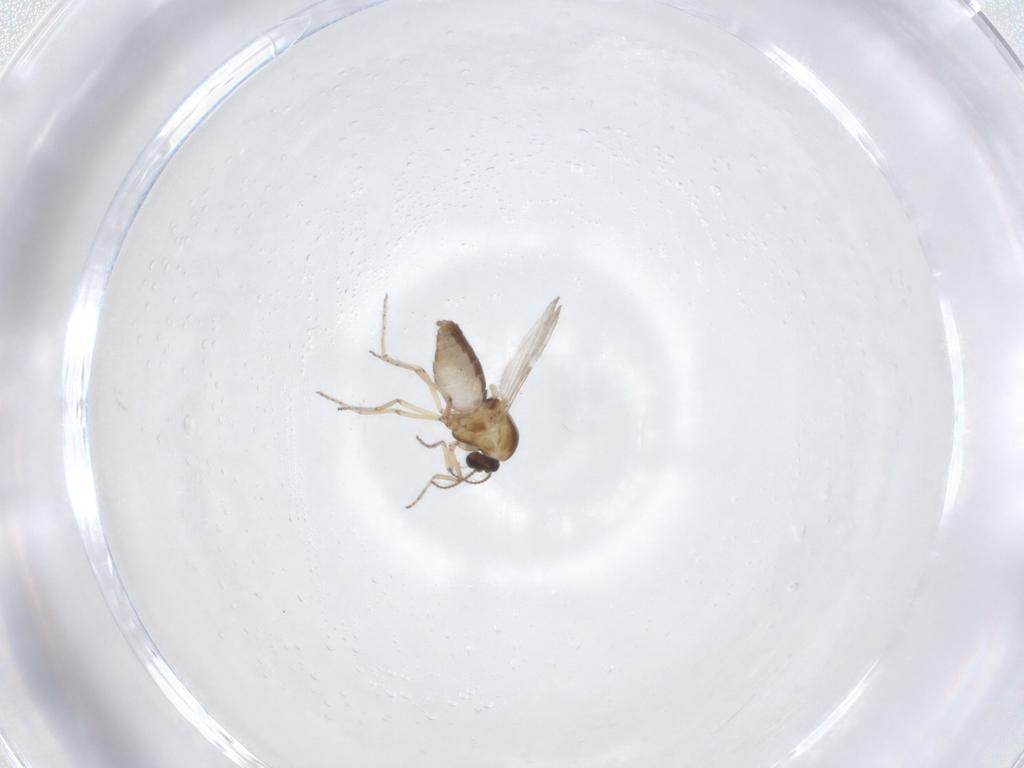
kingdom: Animalia
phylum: Arthropoda
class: Insecta
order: Diptera
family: Ceratopogonidae
